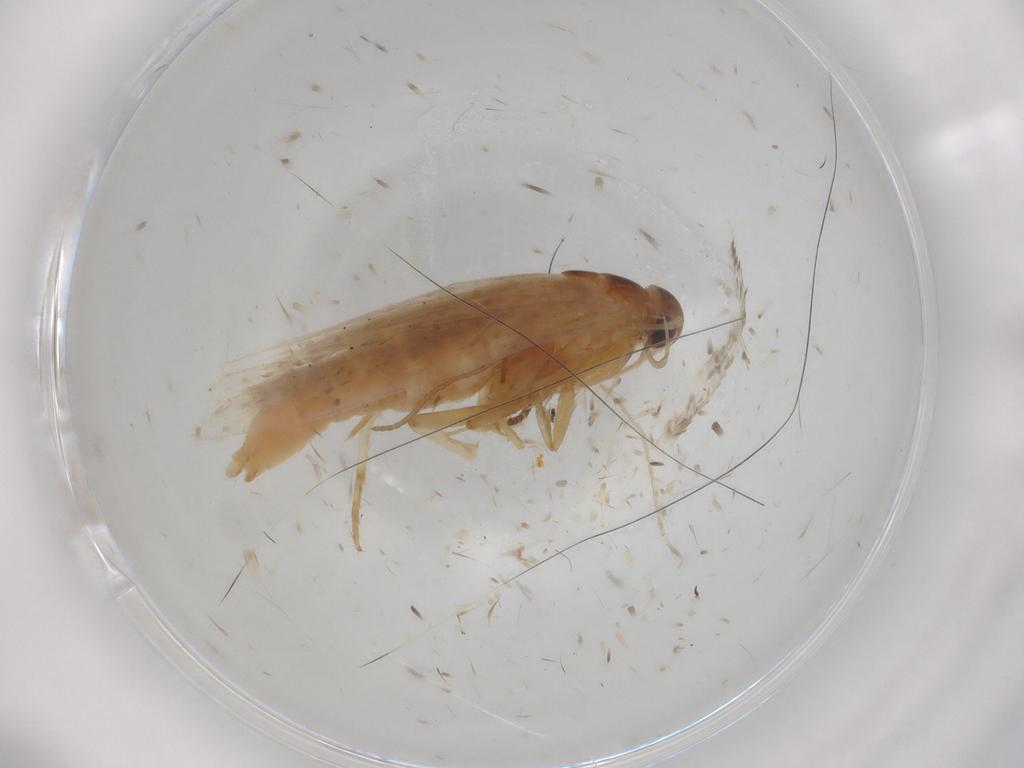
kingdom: Animalia
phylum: Arthropoda
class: Insecta
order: Lepidoptera
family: Gelechiidae
